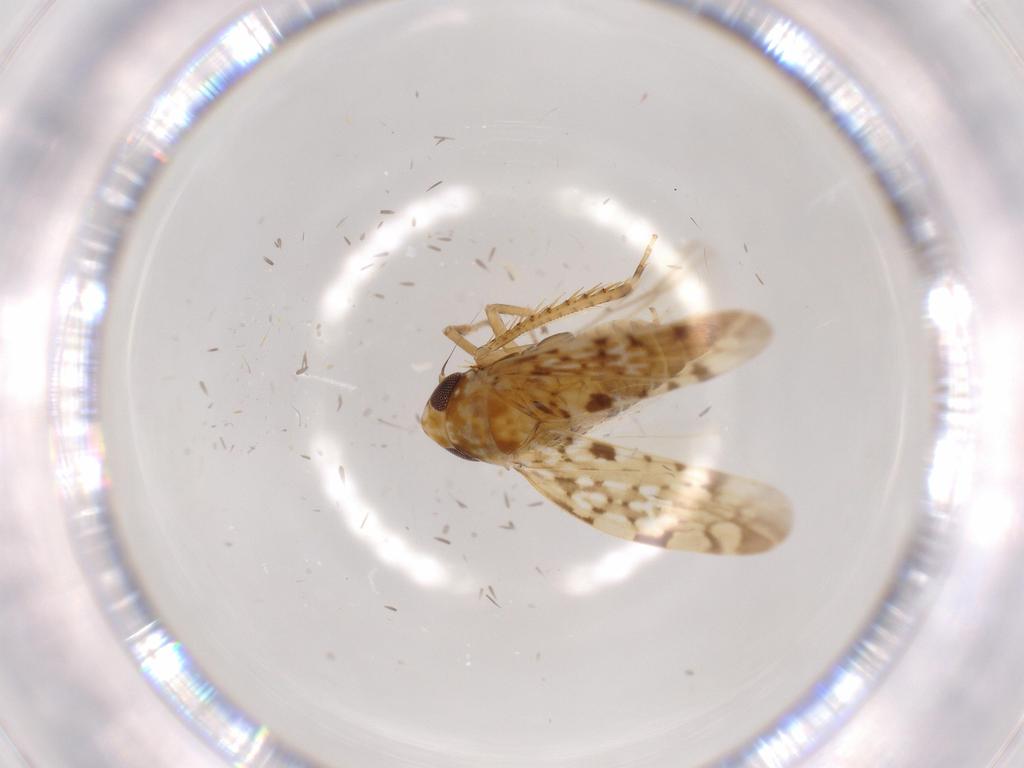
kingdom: Animalia
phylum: Arthropoda
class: Insecta
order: Hemiptera
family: Cicadellidae
